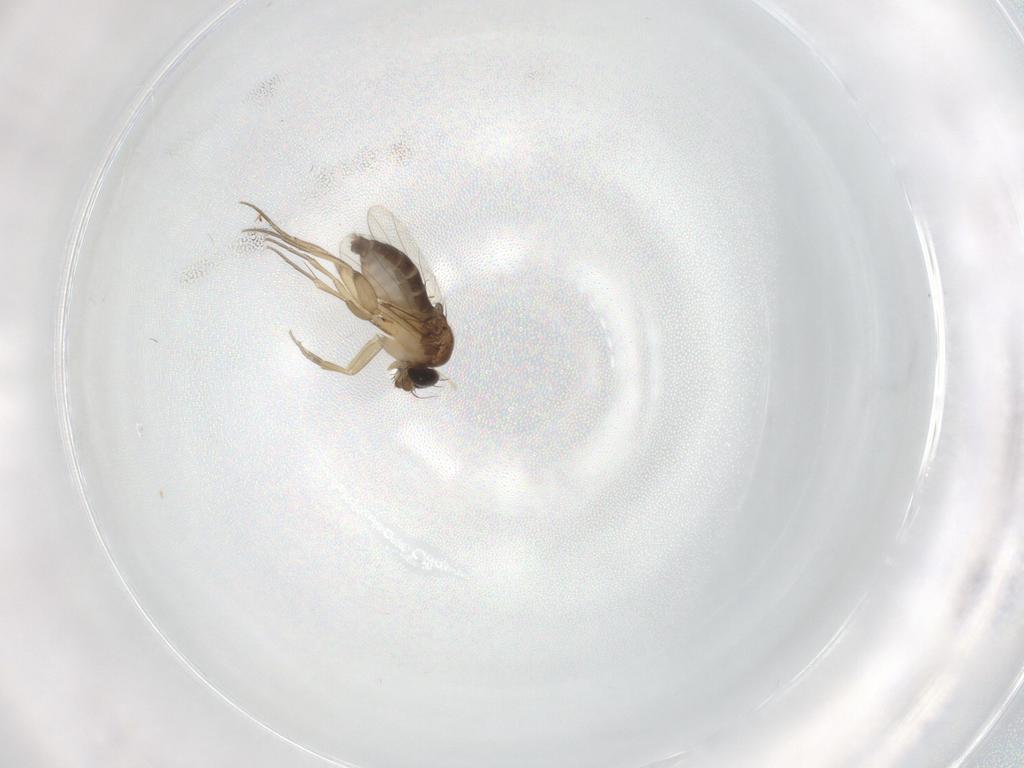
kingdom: Animalia
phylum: Arthropoda
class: Insecta
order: Diptera
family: Phoridae
